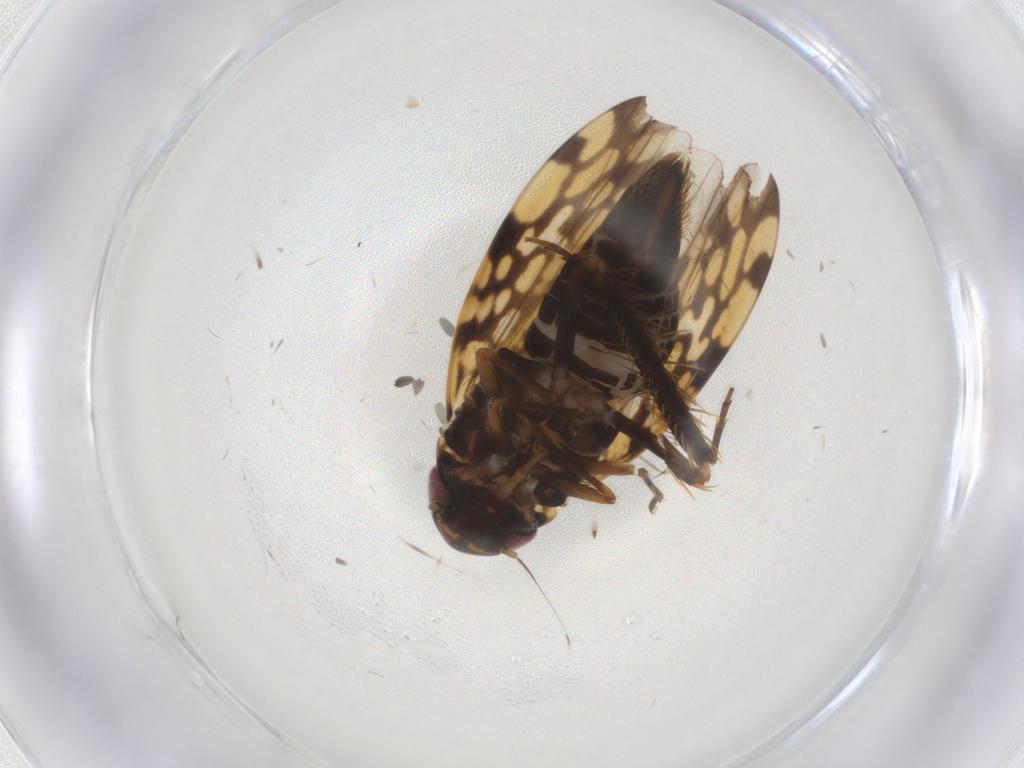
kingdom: Animalia
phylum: Arthropoda
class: Insecta
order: Hemiptera
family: Cicadellidae
